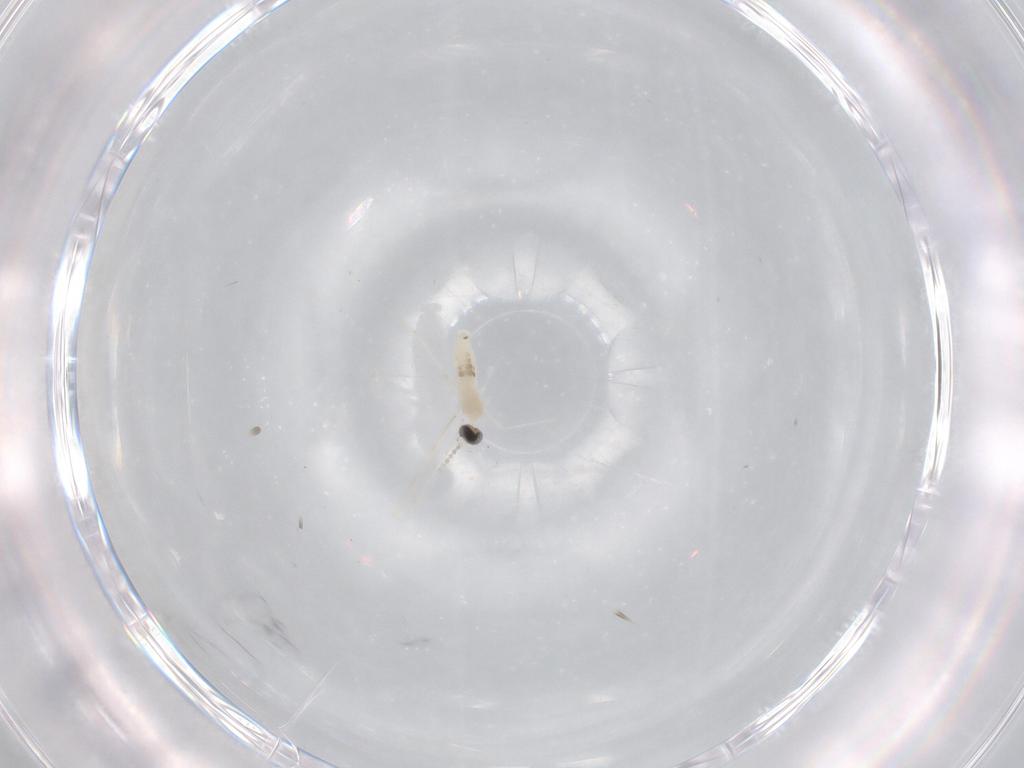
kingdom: Animalia
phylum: Arthropoda
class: Insecta
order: Diptera
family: Cecidomyiidae
